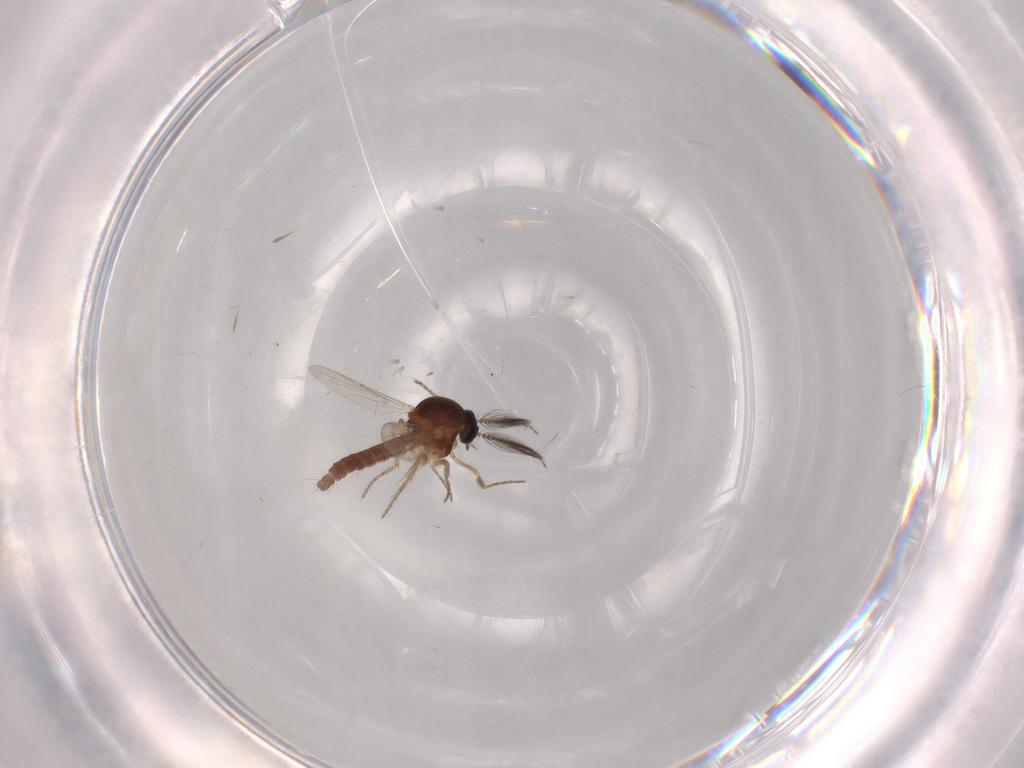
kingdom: Animalia
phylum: Arthropoda
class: Insecta
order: Diptera
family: Ceratopogonidae
